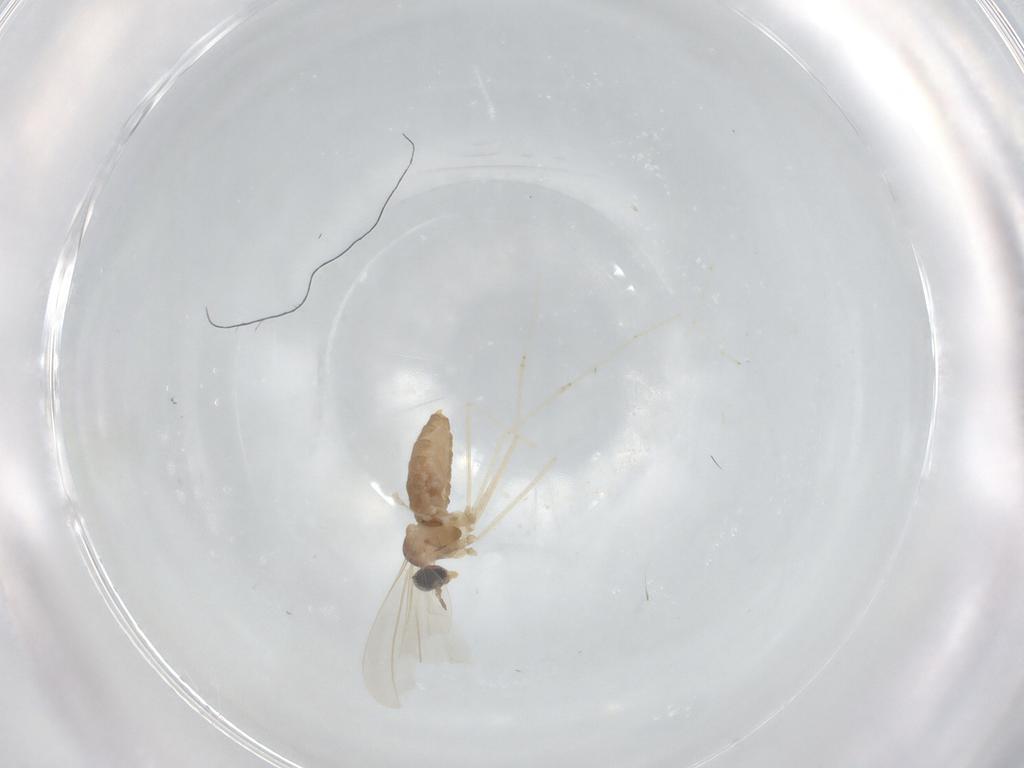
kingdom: Animalia
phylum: Arthropoda
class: Insecta
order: Diptera
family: Cecidomyiidae
